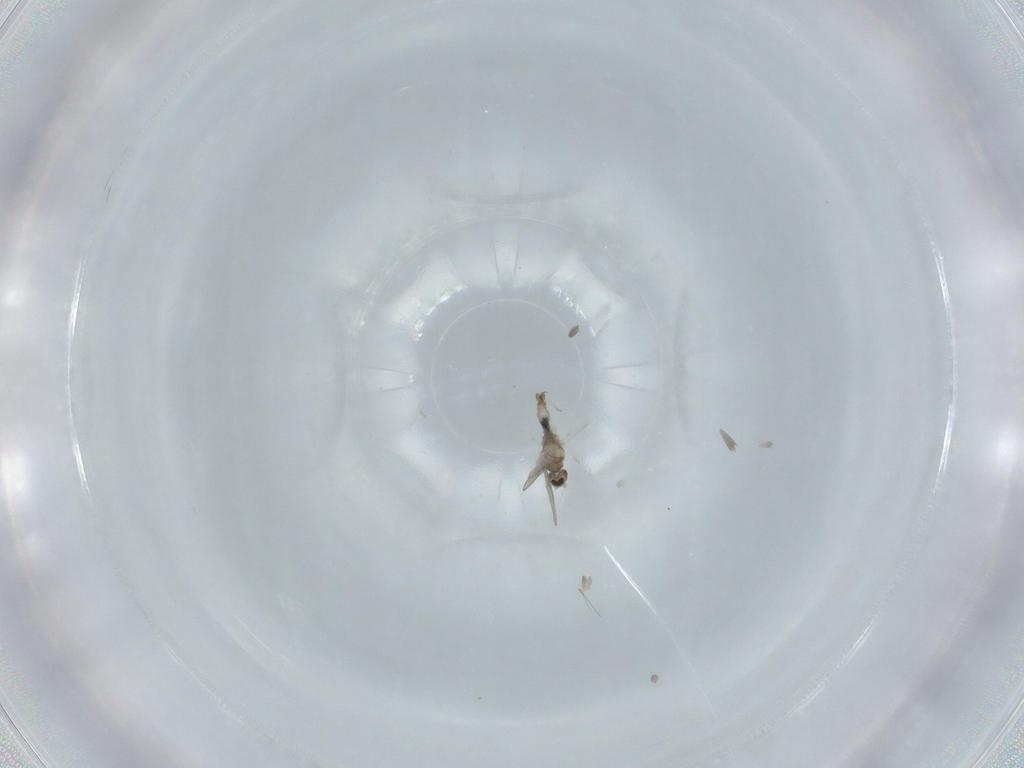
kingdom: Animalia
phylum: Arthropoda
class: Insecta
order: Diptera
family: Cecidomyiidae
